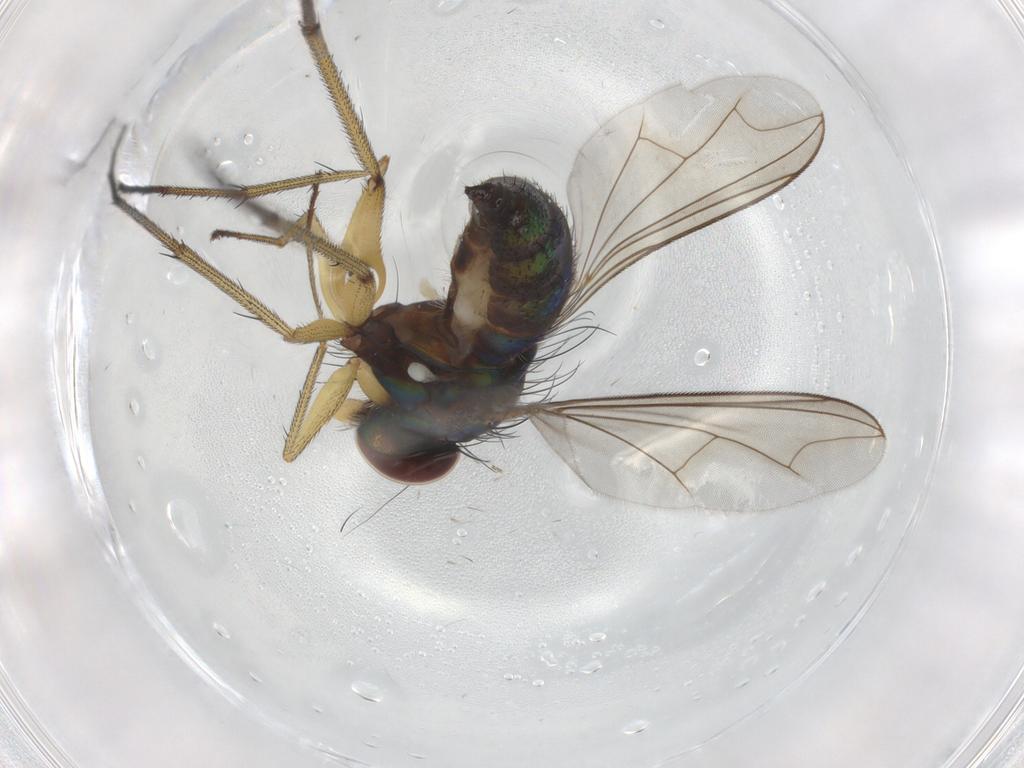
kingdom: Animalia
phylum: Arthropoda
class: Insecta
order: Diptera
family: Dolichopodidae
